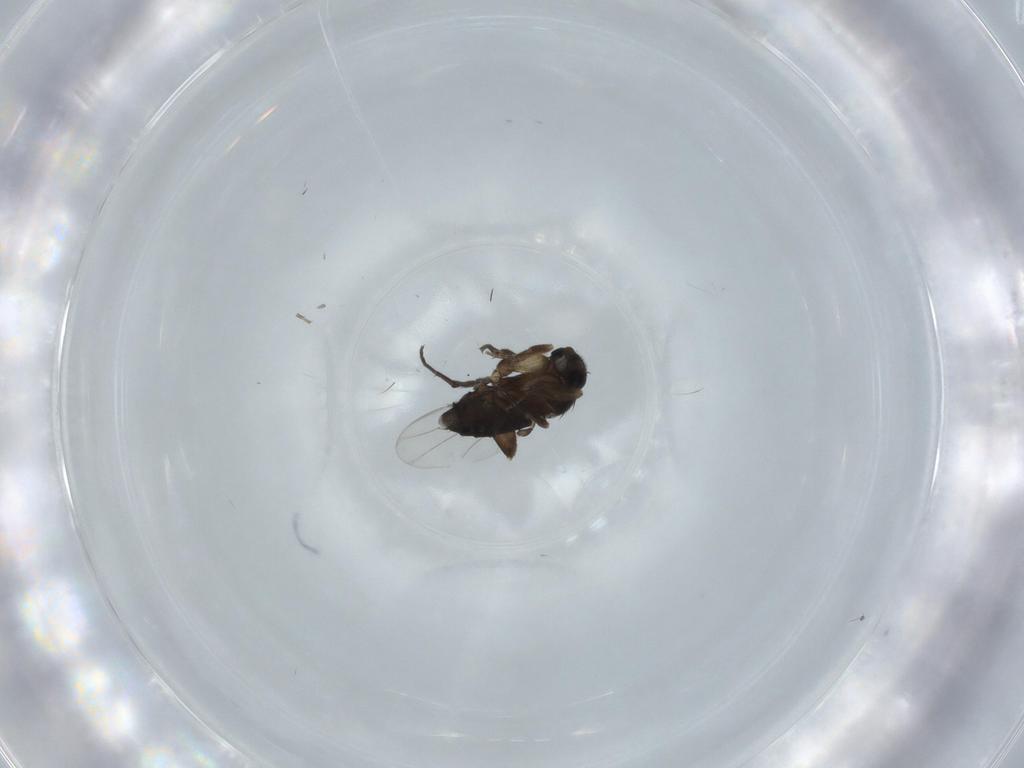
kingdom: Animalia
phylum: Arthropoda
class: Insecta
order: Diptera
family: Phoridae
